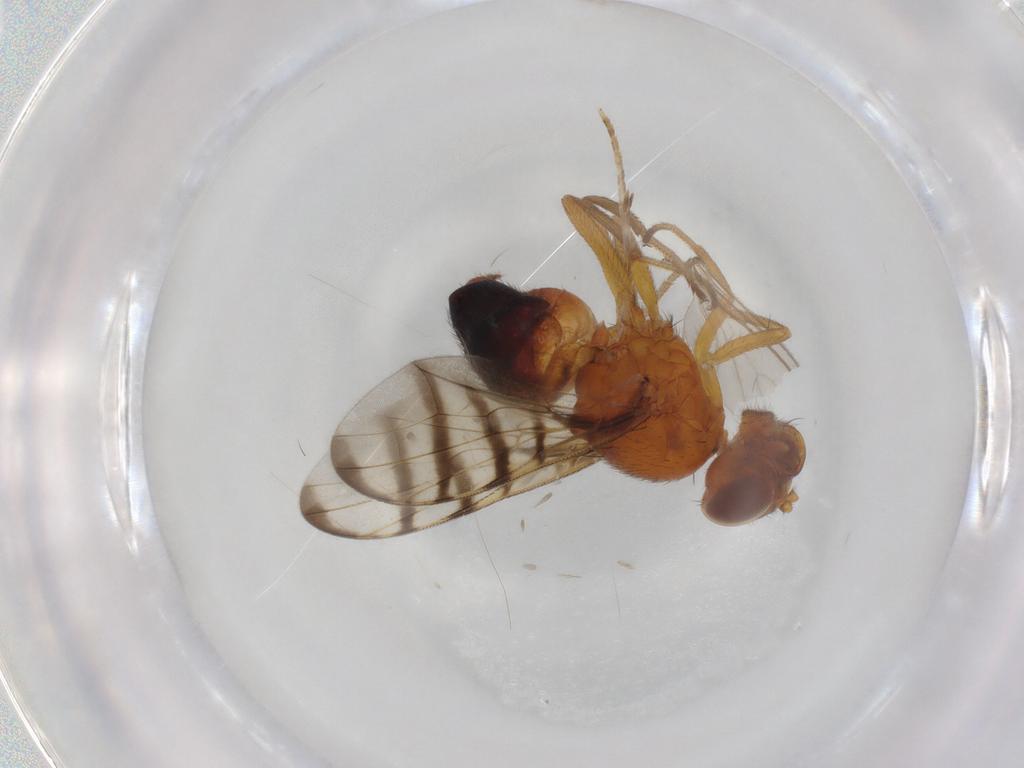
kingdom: Animalia
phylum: Arthropoda
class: Insecta
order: Diptera
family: Platystomatidae
